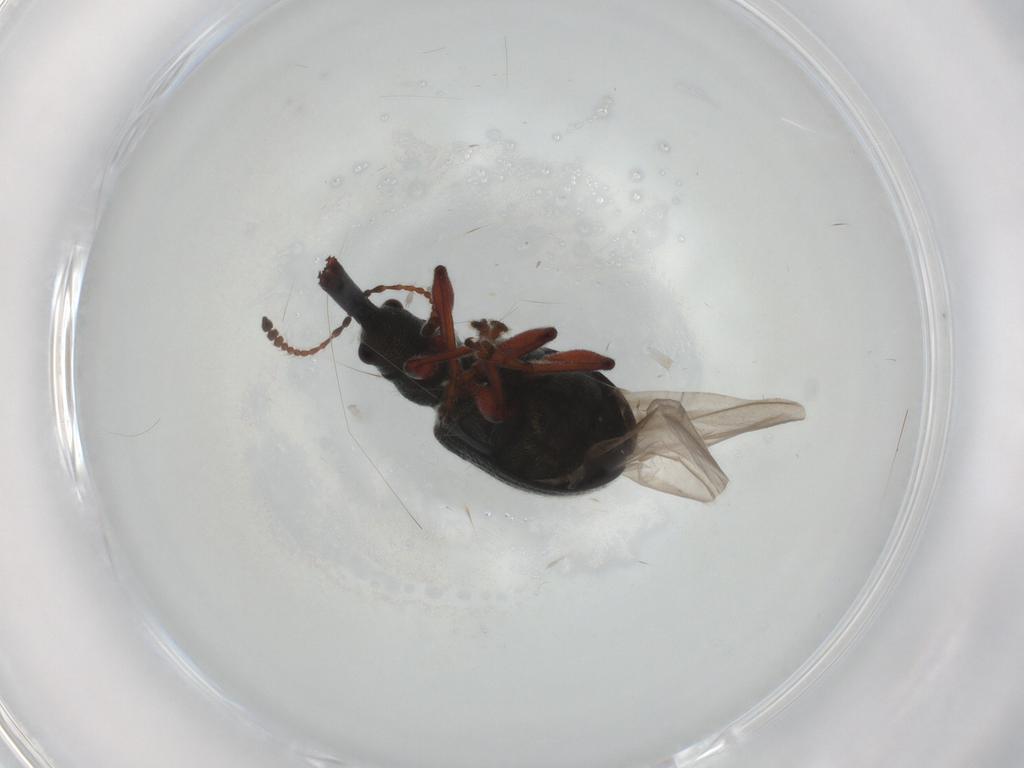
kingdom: Animalia
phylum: Arthropoda
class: Insecta
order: Coleoptera
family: Attelabidae
